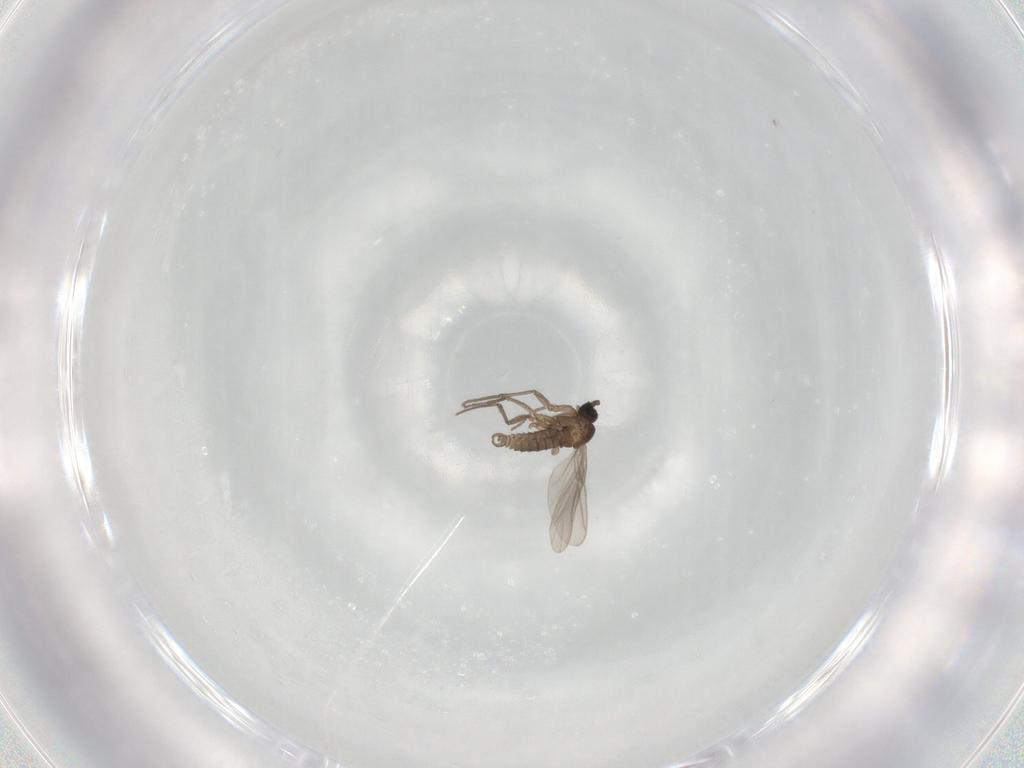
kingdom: Animalia
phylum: Arthropoda
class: Insecta
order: Diptera
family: Sciaridae
